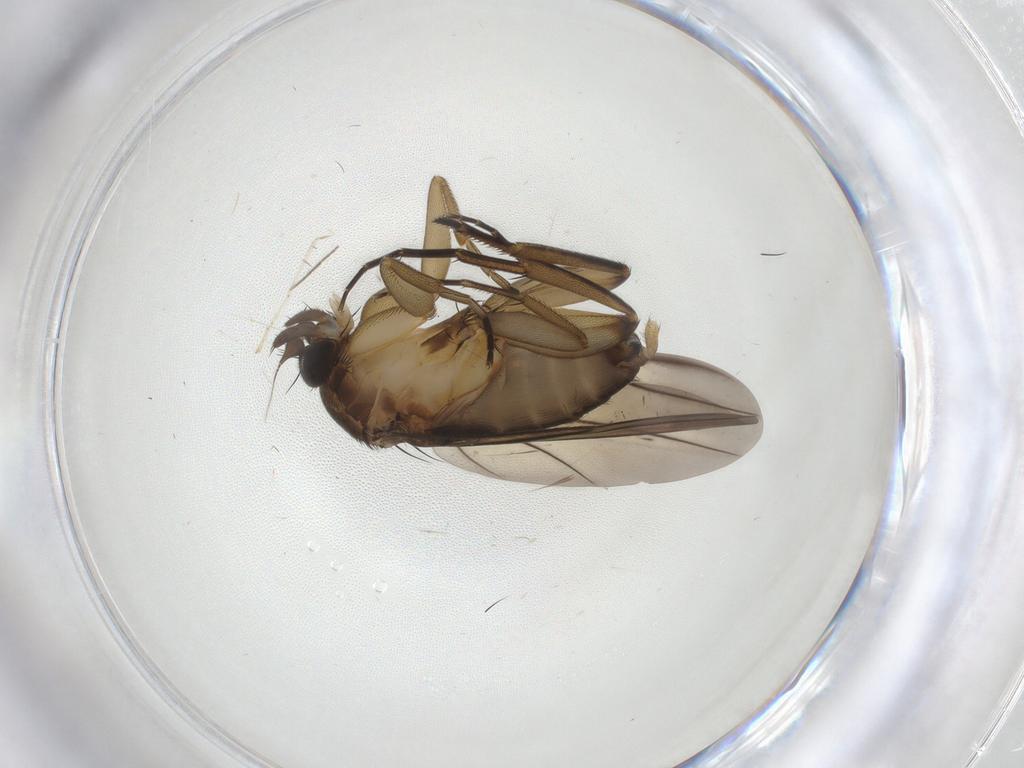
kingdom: Animalia
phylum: Arthropoda
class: Insecta
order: Diptera
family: Psychodidae
